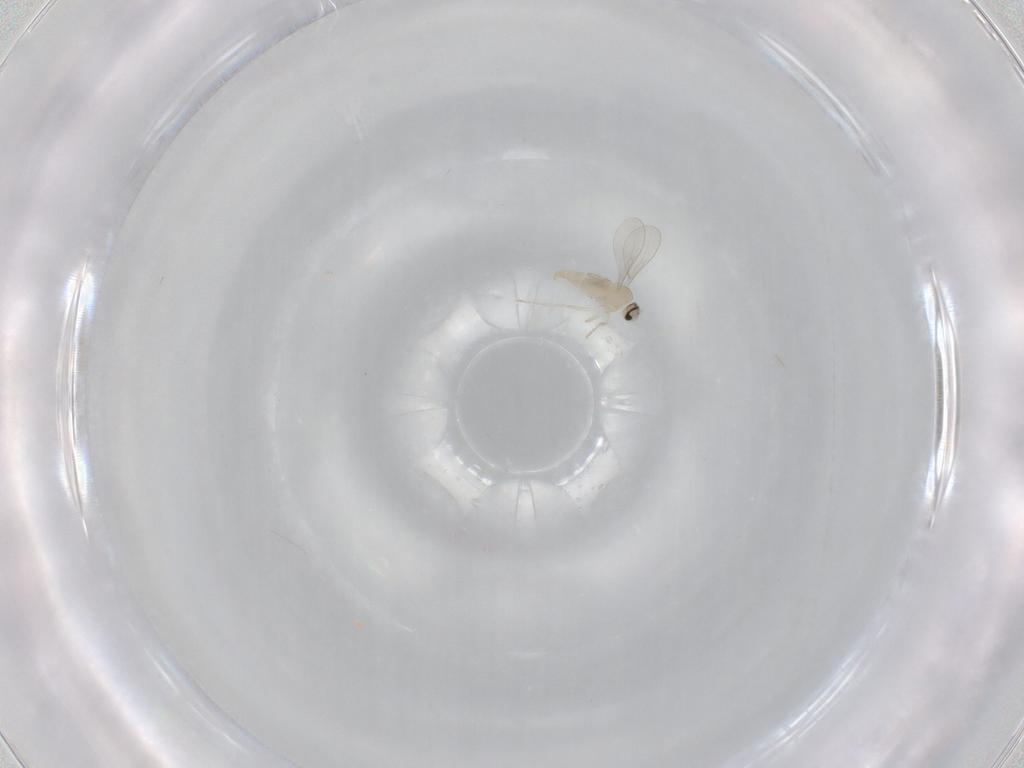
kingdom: Animalia
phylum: Arthropoda
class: Insecta
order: Diptera
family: Cecidomyiidae
